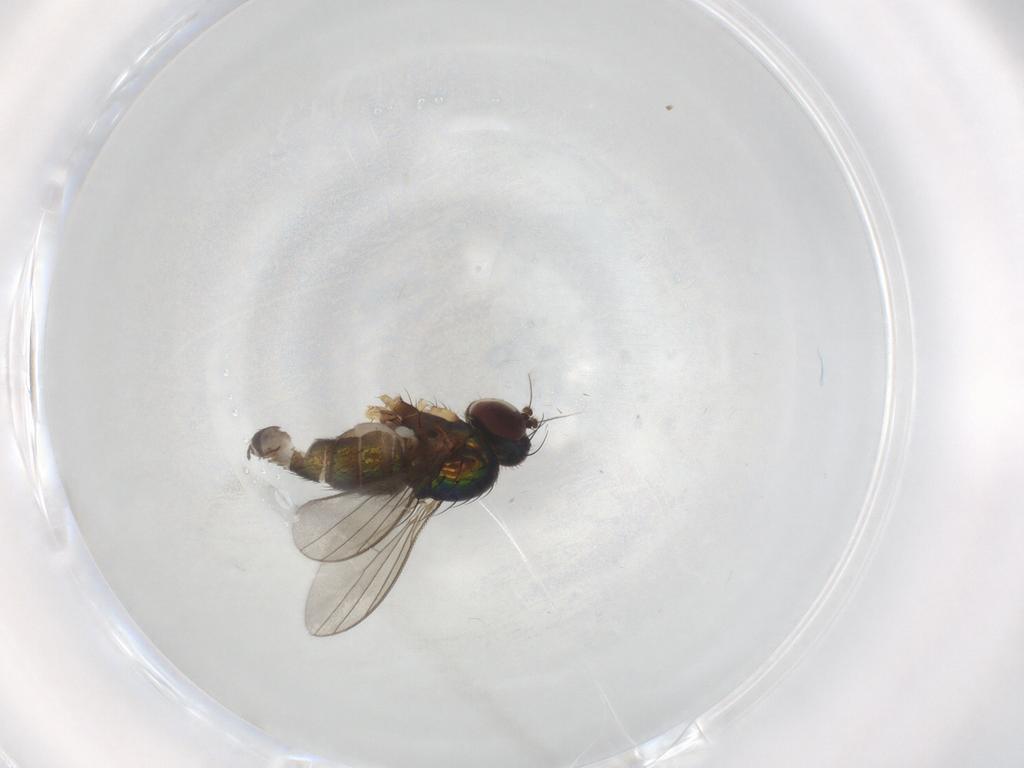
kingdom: Animalia
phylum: Arthropoda
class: Insecta
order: Diptera
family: Dolichopodidae
